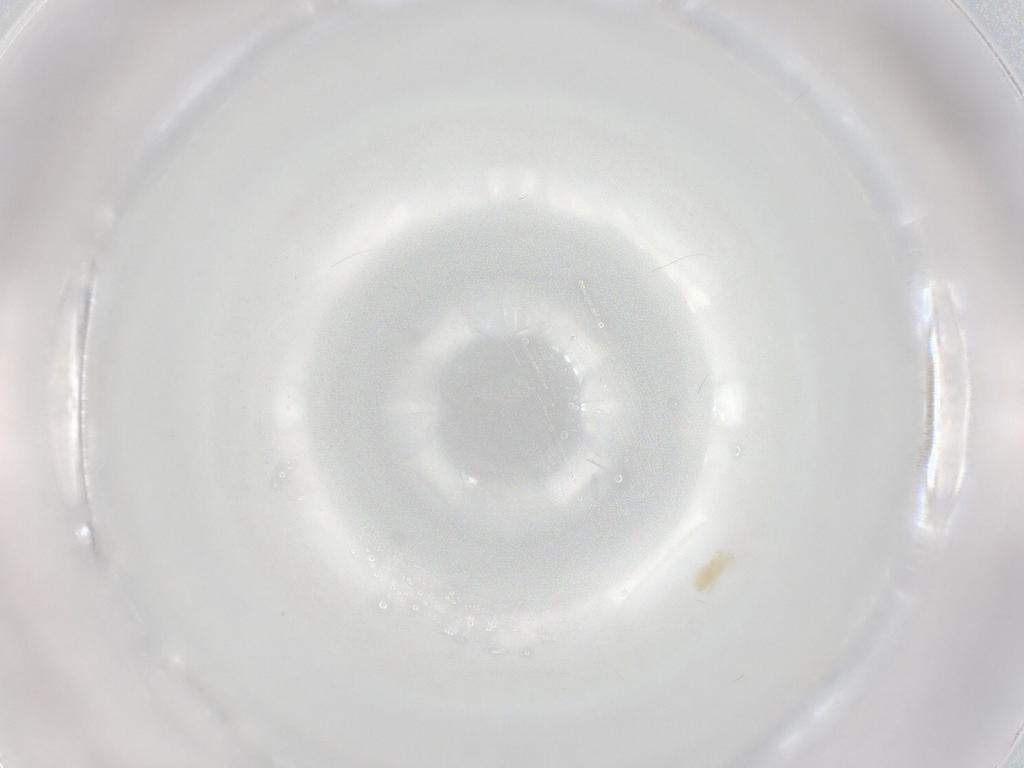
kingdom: Animalia
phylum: Arthropoda
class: Arachnida
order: Trombidiformes
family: Eupodidae
